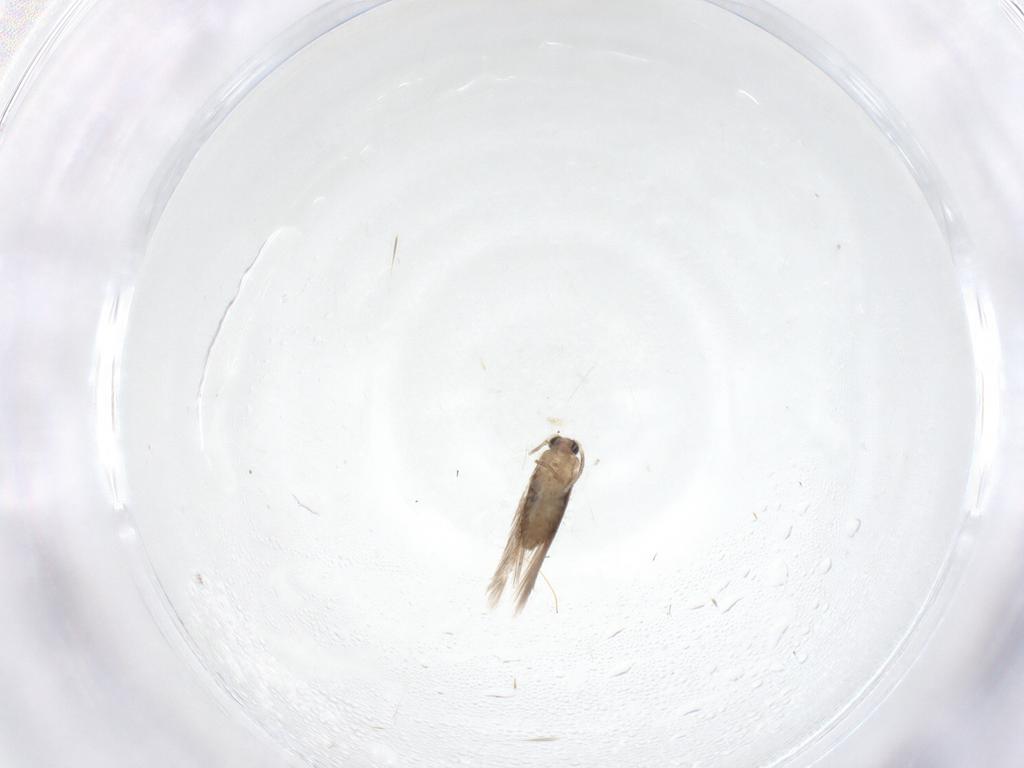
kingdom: Animalia
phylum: Arthropoda
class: Insecta
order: Lepidoptera
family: Nepticulidae
